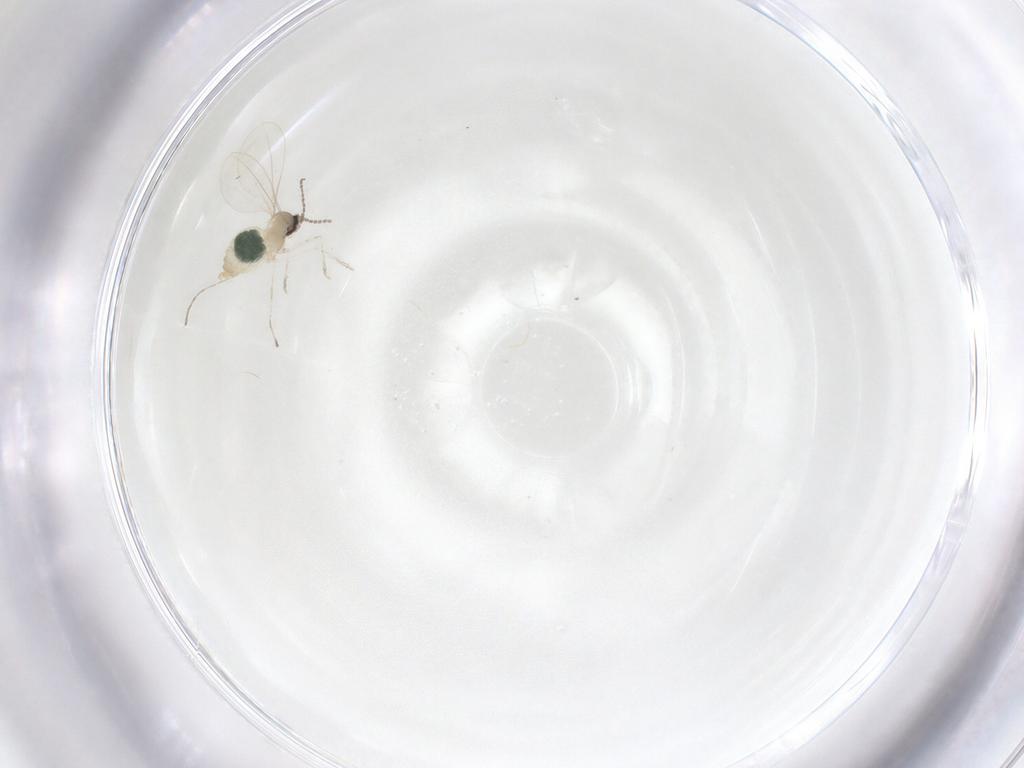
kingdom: Animalia
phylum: Arthropoda
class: Insecta
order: Diptera
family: Cecidomyiidae
